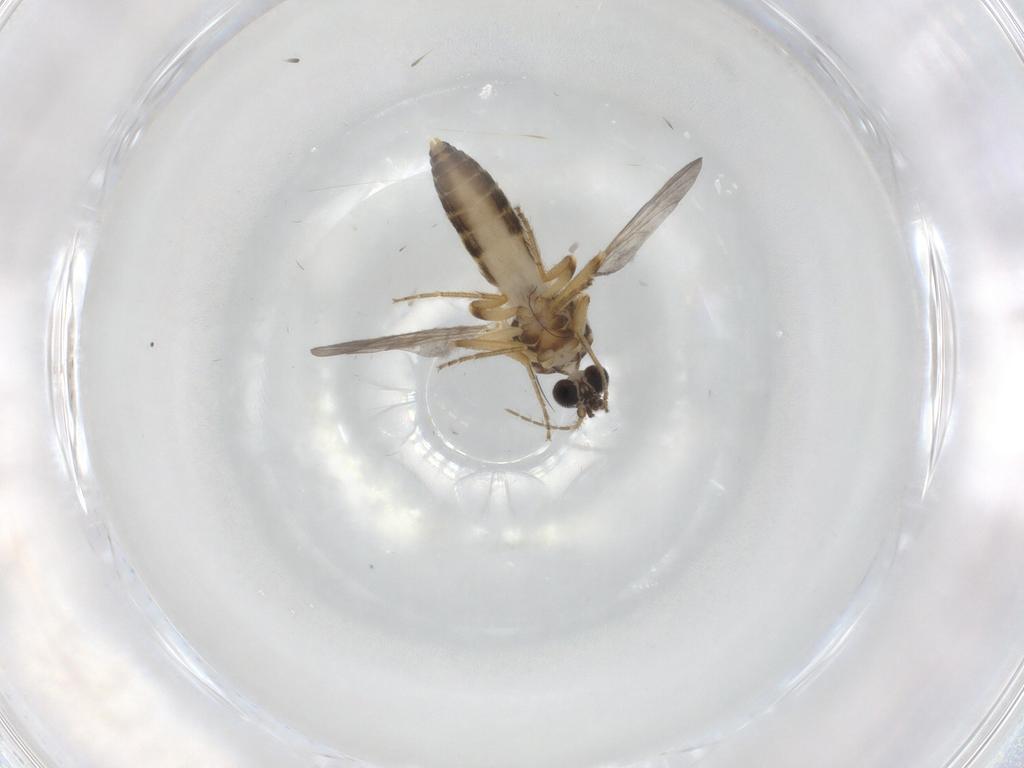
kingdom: Animalia
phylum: Arthropoda
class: Insecta
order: Diptera
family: Ceratopogonidae
